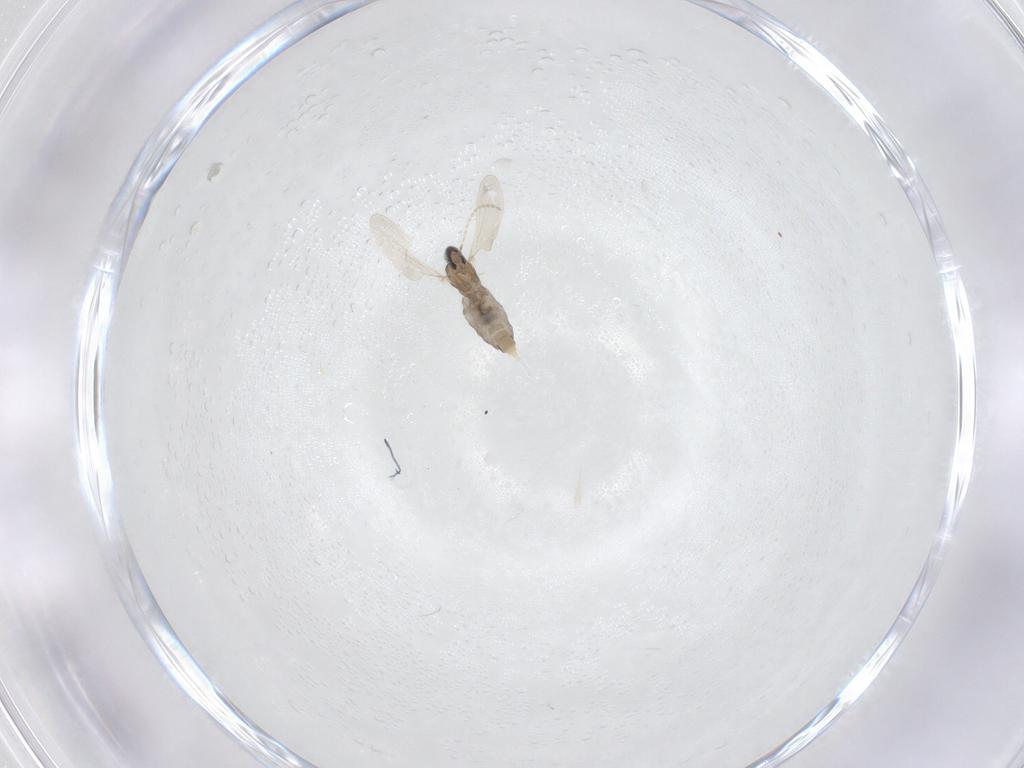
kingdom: Animalia
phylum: Arthropoda
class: Insecta
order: Diptera
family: Cecidomyiidae
